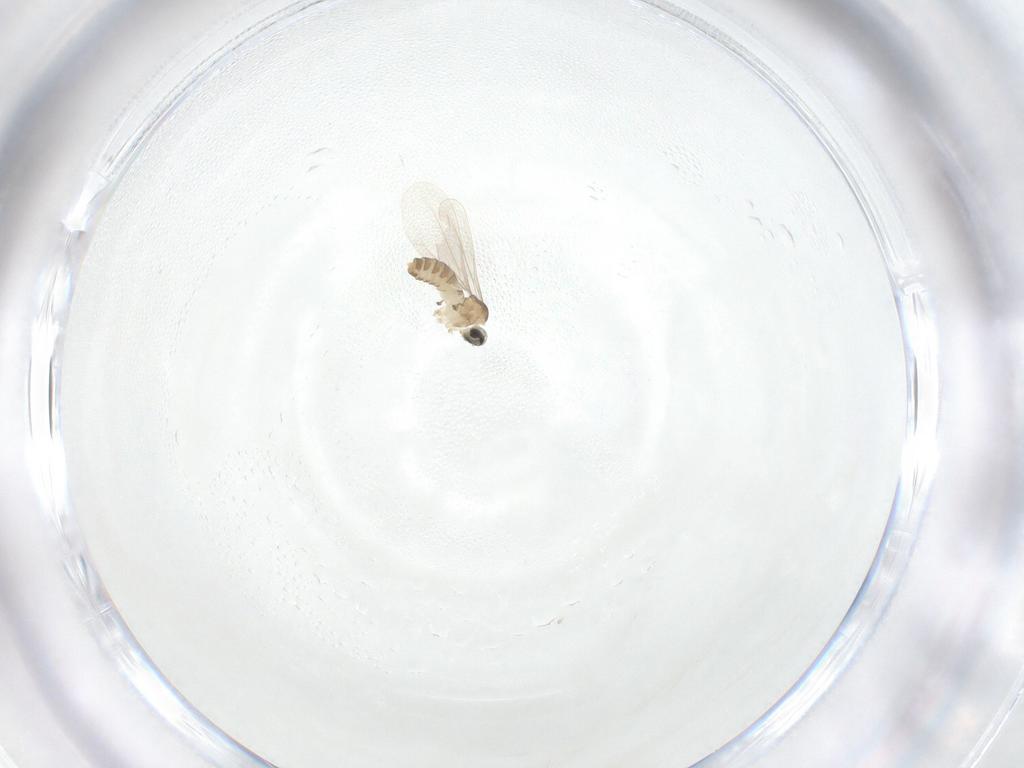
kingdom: Animalia
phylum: Arthropoda
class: Insecta
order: Diptera
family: Cecidomyiidae
